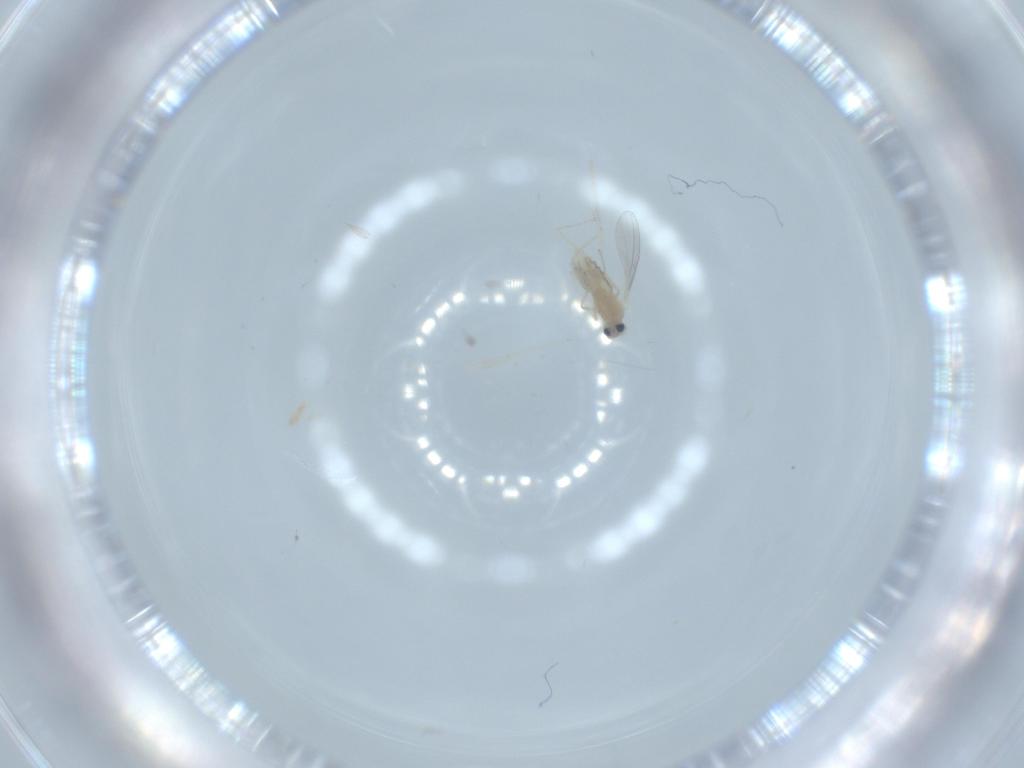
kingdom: Animalia
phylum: Arthropoda
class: Insecta
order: Diptera
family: Cecidomyiidae
